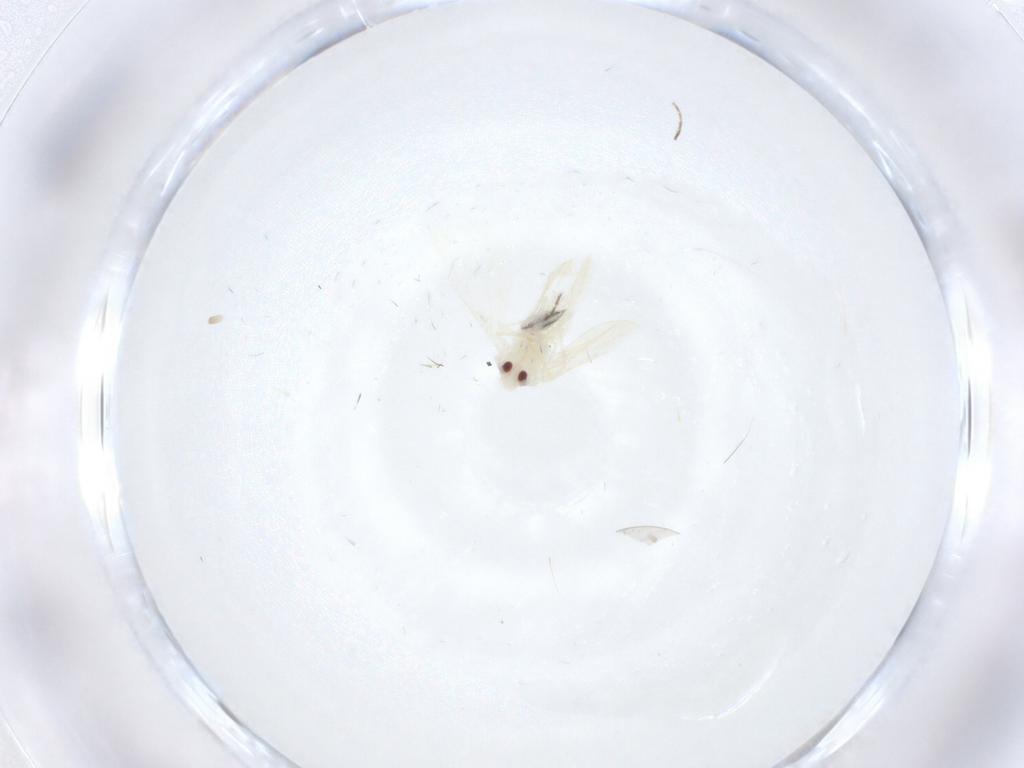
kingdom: Animalia
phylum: Arthropoda
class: Insecta
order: Hemiptera
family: Aleyrodidae
